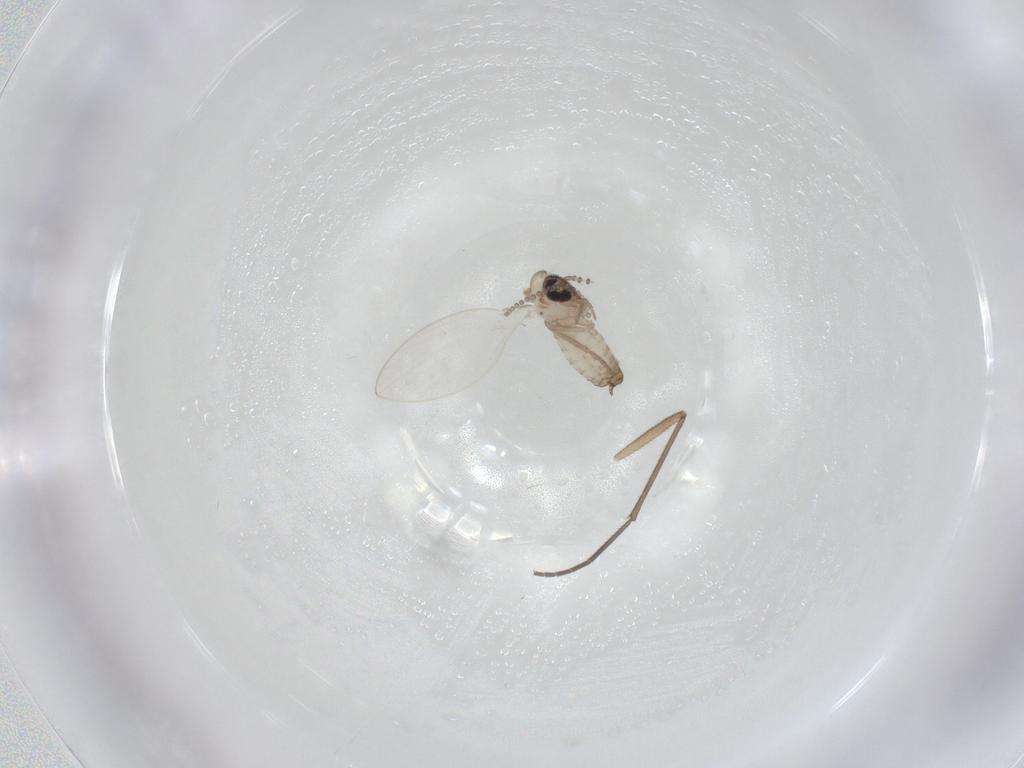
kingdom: Animalia
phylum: Arthropoda
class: Insecta
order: Diptera
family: Psychodidae
